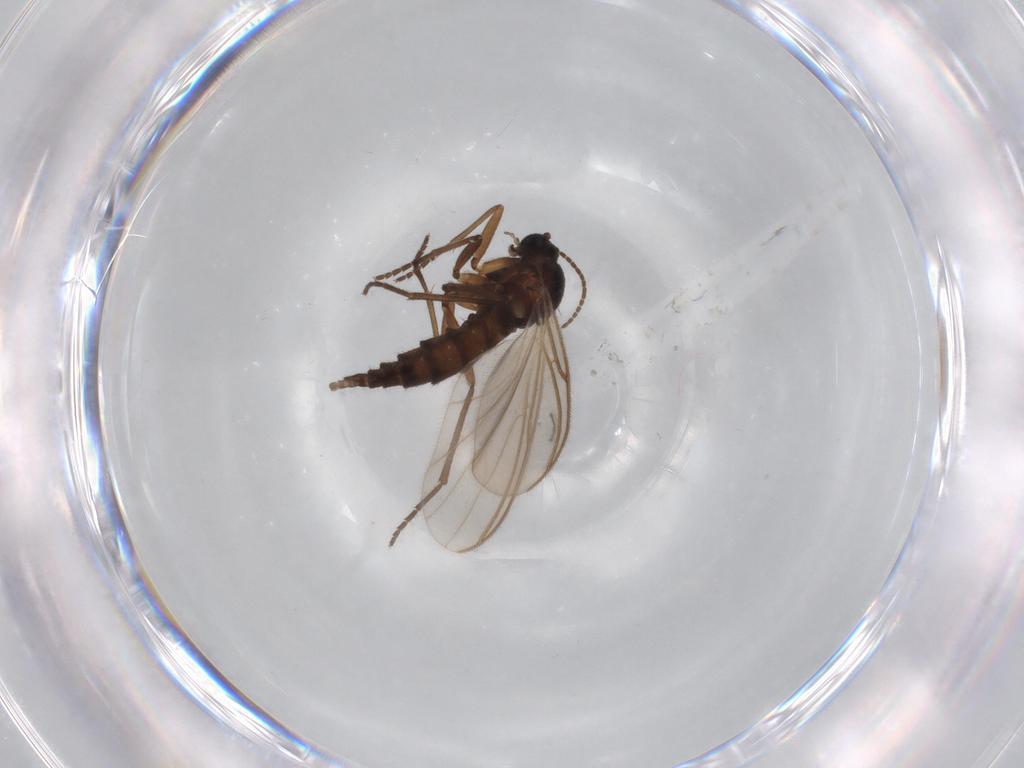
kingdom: Animalia
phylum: Arthropoda
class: Insecta
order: Diptera
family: Sciaridae
